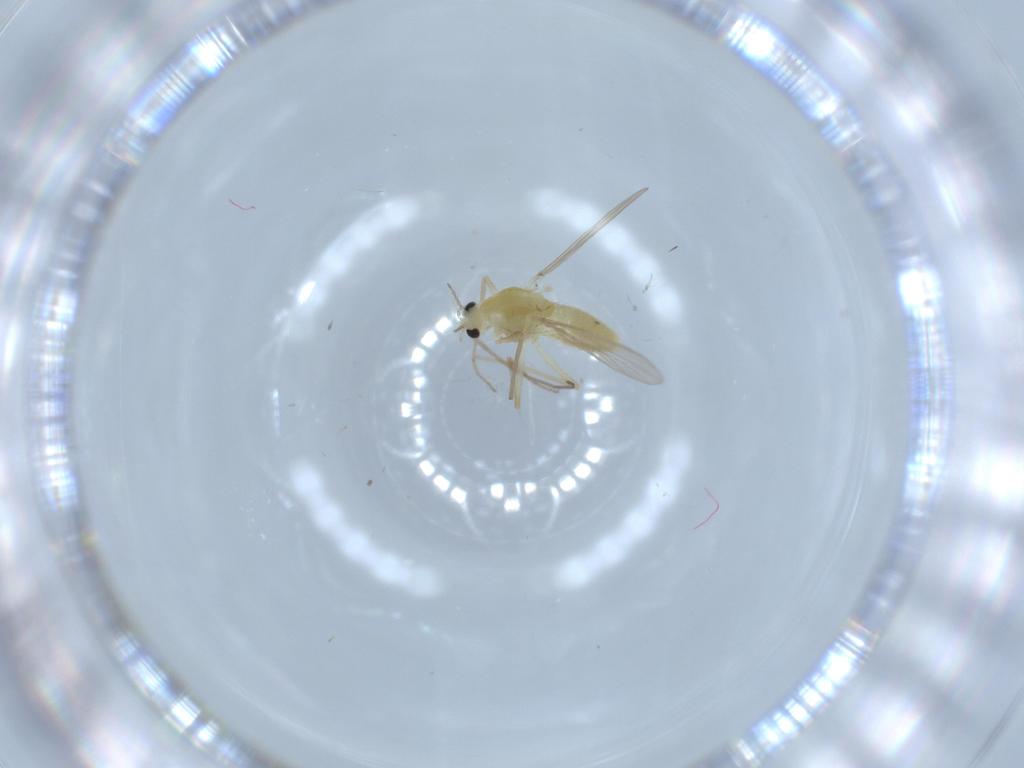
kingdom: Animalia
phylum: Arthropoda
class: Insecta
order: Diptera
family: Chironomidae
